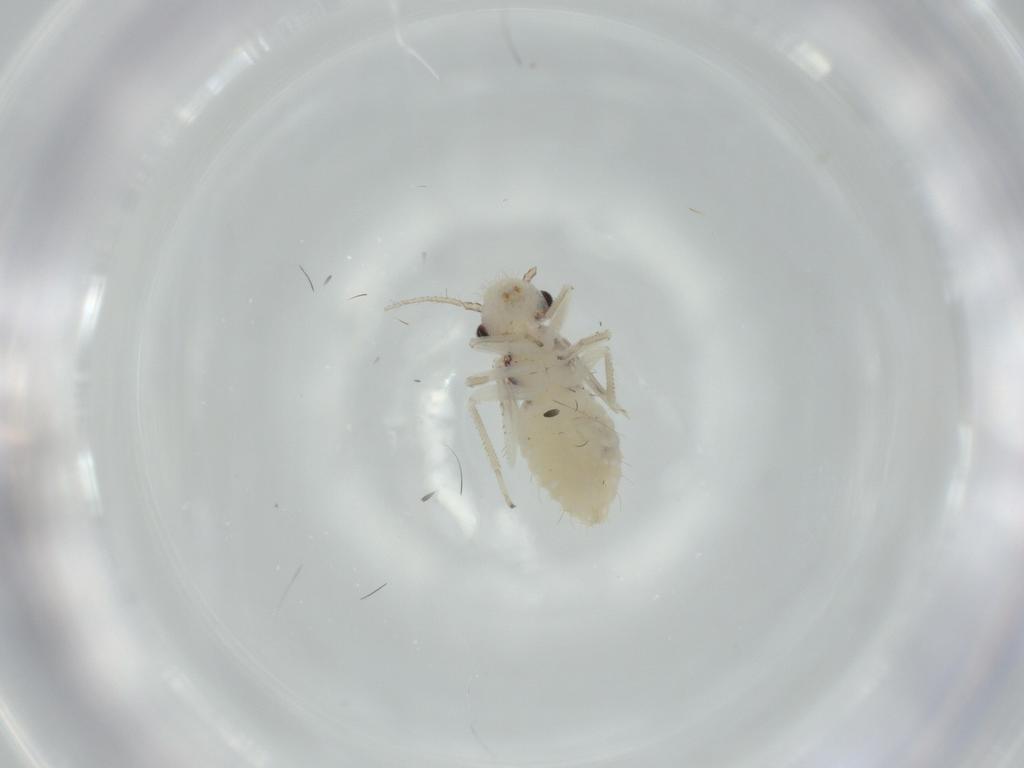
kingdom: Animalia
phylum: Arthropoda
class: Insecta
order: Psocodea
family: Pseudocaeciliidae
